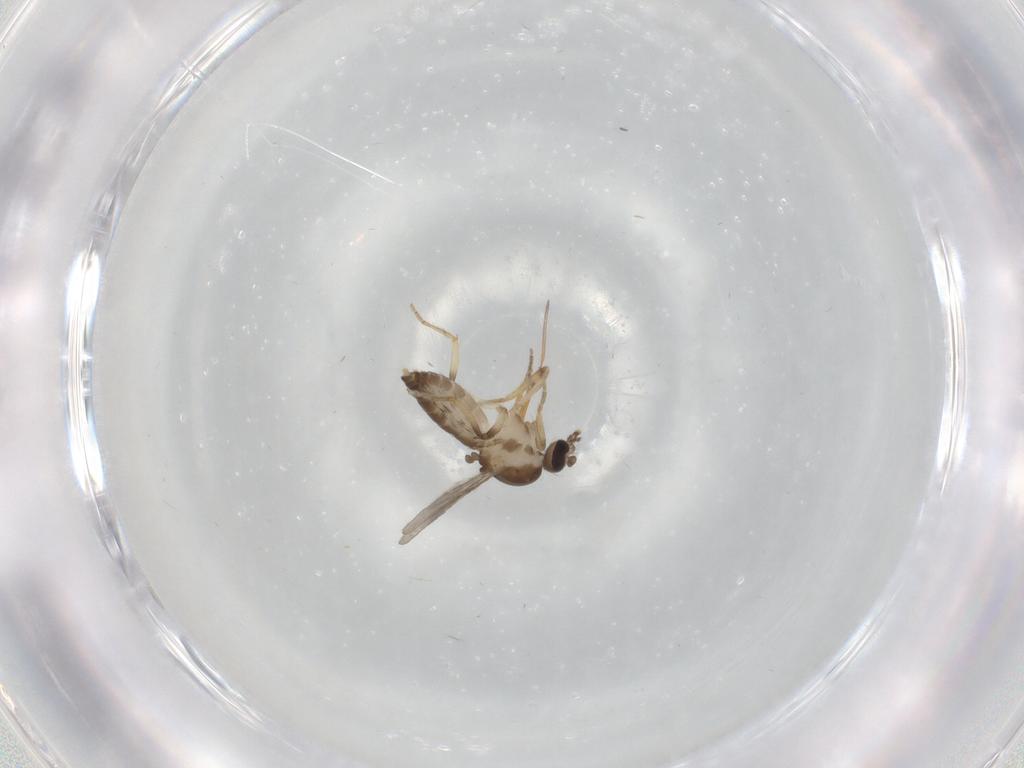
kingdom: Animalia
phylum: Arthropoda
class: Insecta
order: Diptera
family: Ceratopogonidae
